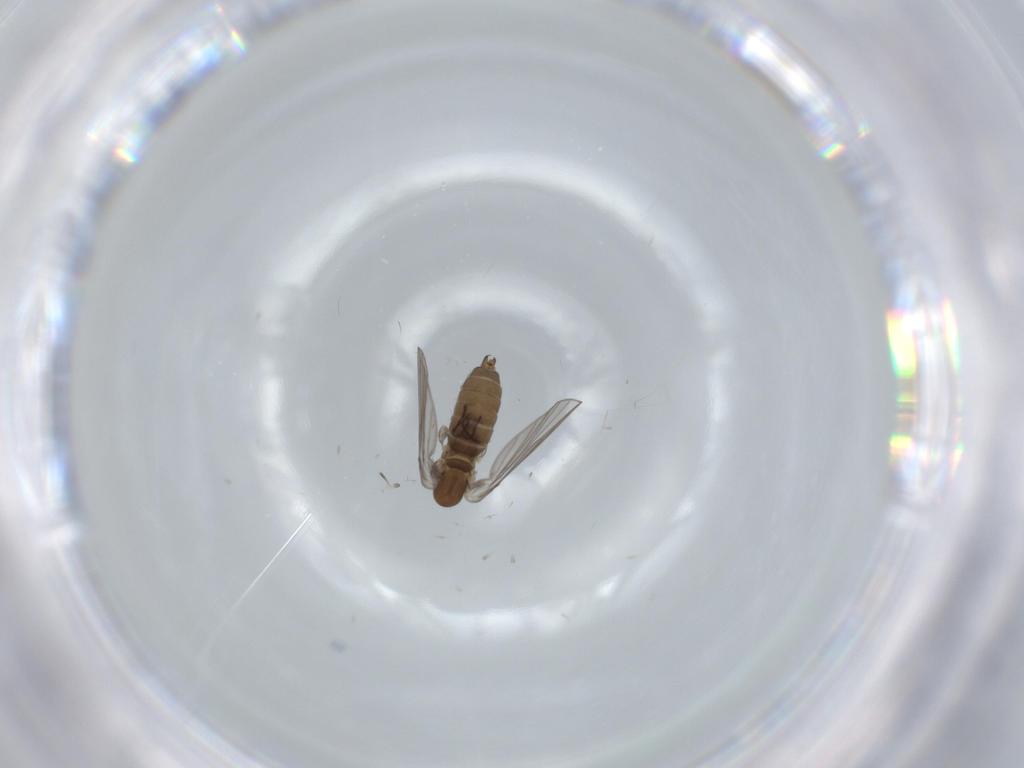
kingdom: Animalia
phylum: Arthropoda
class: Insecta
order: Diptera
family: Psychodidae
